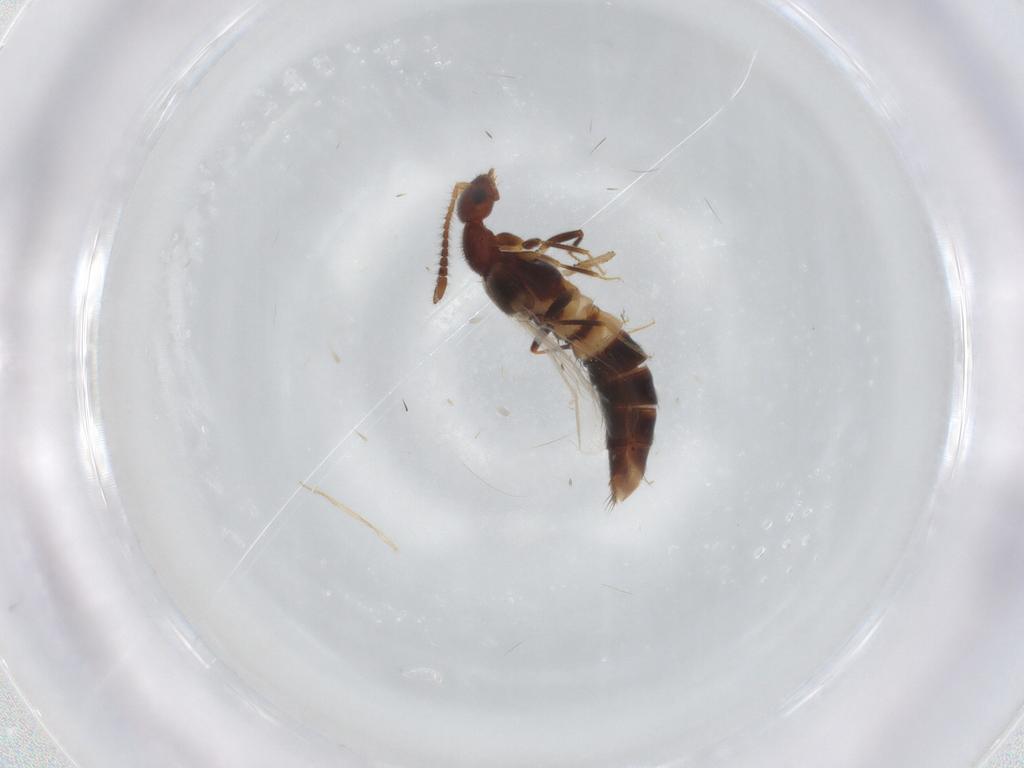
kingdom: Animalia
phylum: Arthropoda
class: Insecta
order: Coleoptera
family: Staphylinidae
